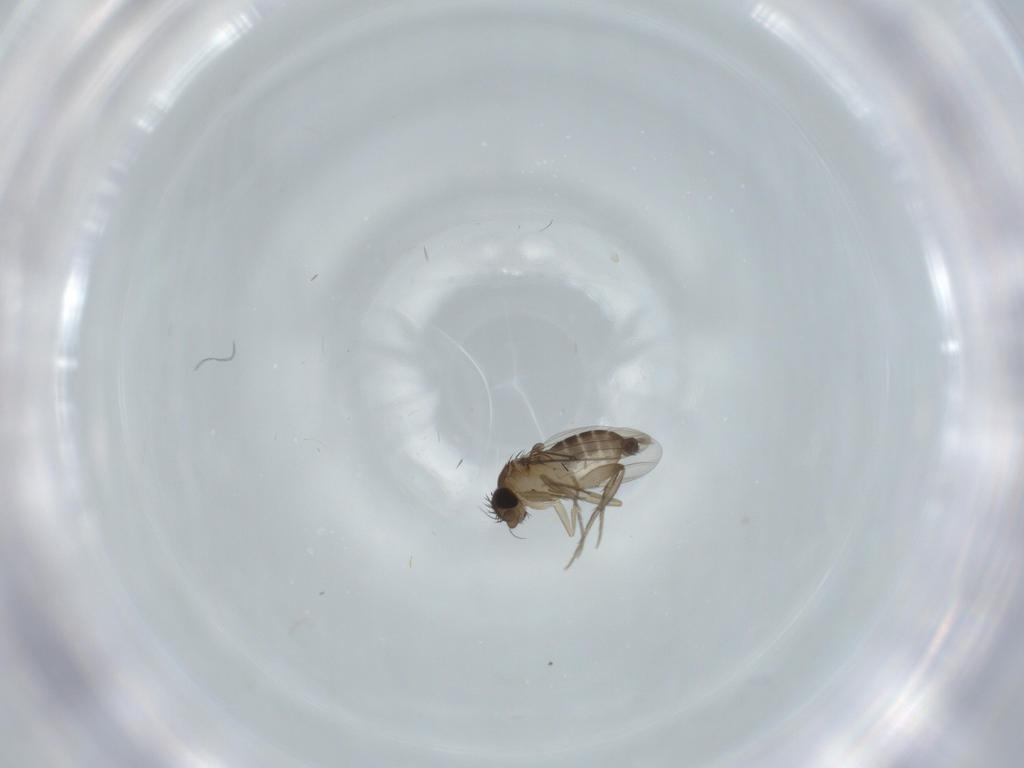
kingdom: Animalia
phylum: Arthropoda
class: Insecta
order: Diptera
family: Phoridae
